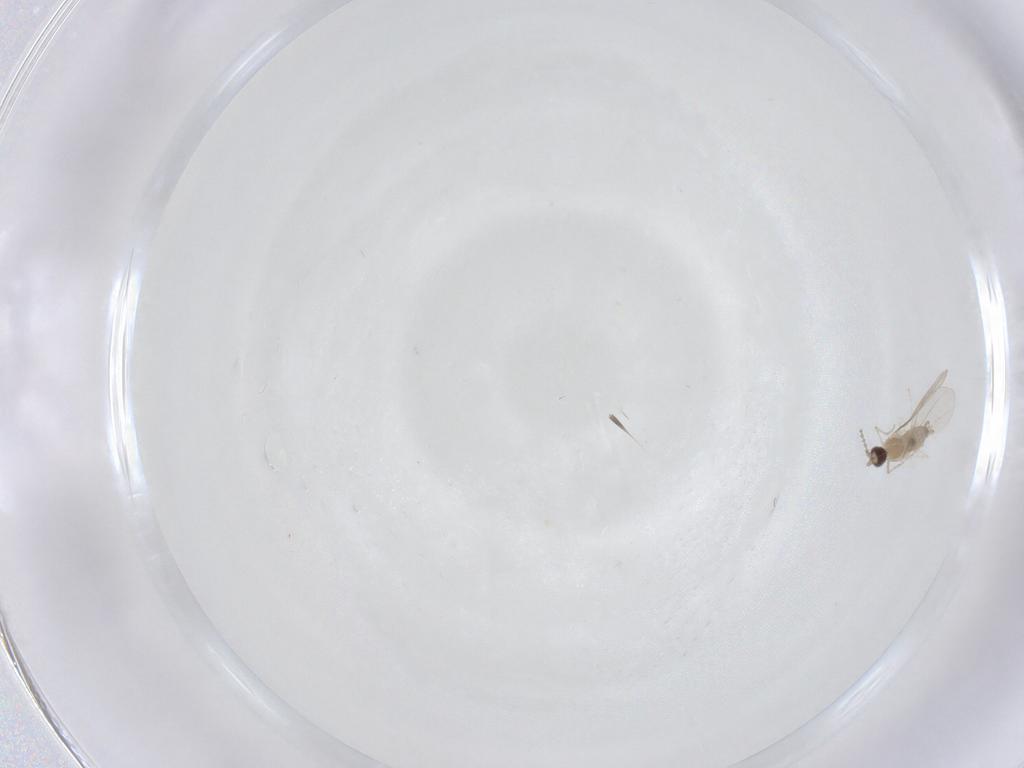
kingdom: Animalia
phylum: Arthropoda
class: Insecta
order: Diptera
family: Cecidomyiidae
